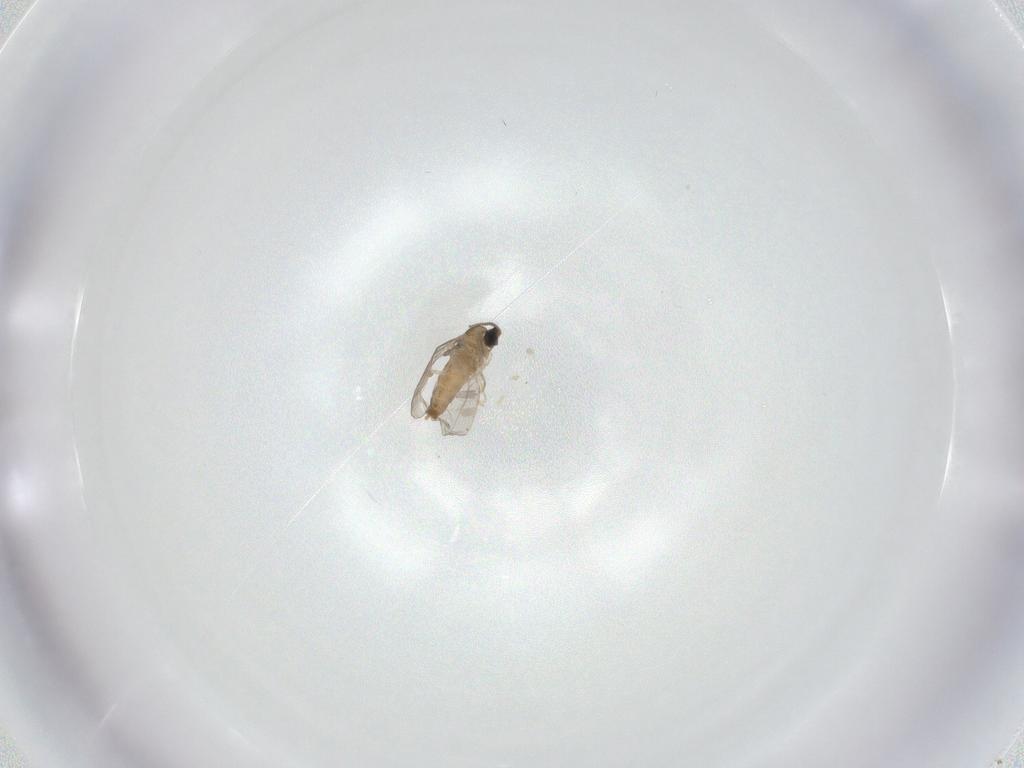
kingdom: Animalia
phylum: Arthropoda
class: Insecta
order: Diptera
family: Cecidomyiidae
